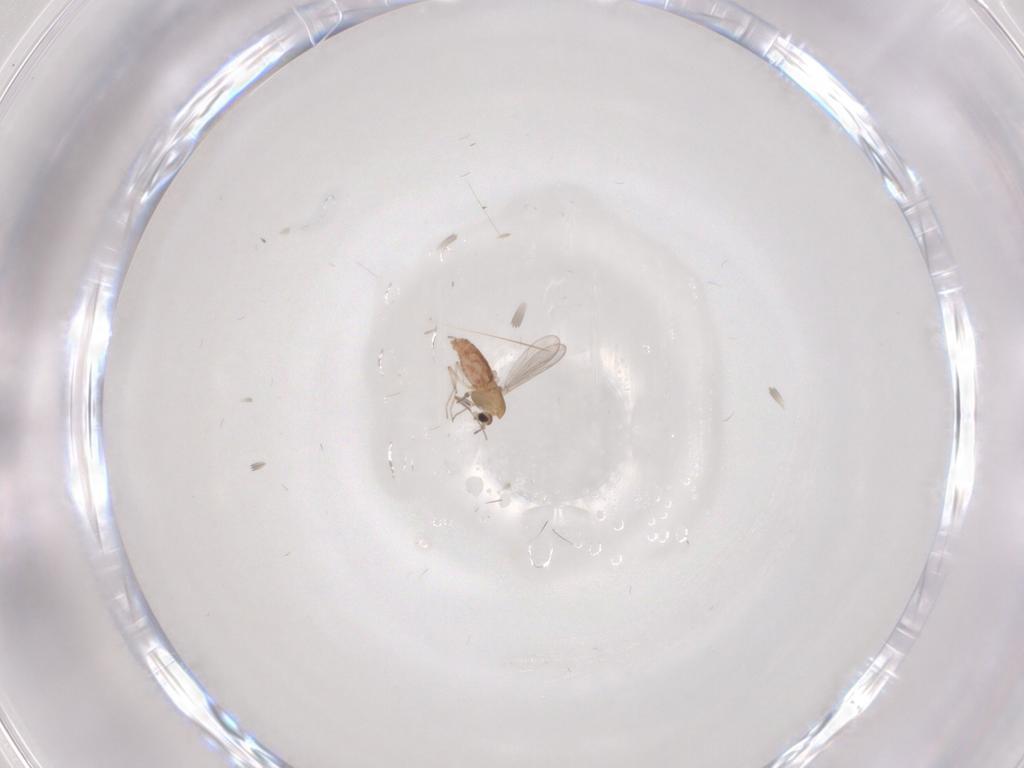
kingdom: Animalia
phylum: Arthropoda
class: Insecta
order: Diptera
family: Chironomidae
